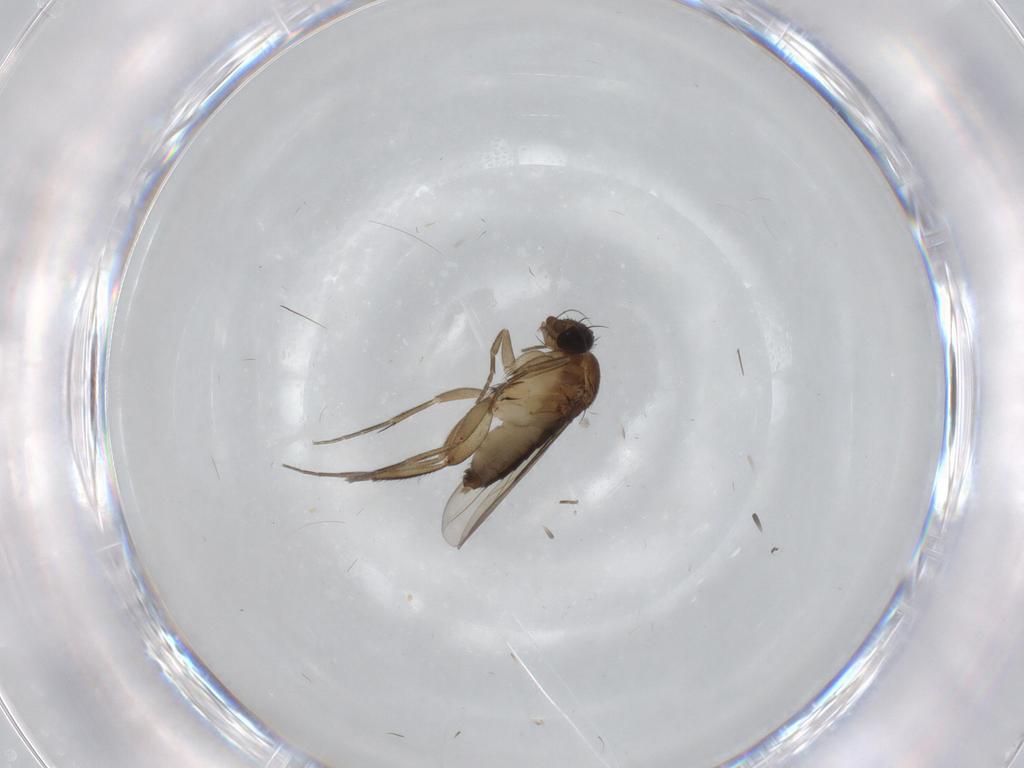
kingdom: Animalia
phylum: Arthropoda
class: Insecta
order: Diptera
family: Phoridae
